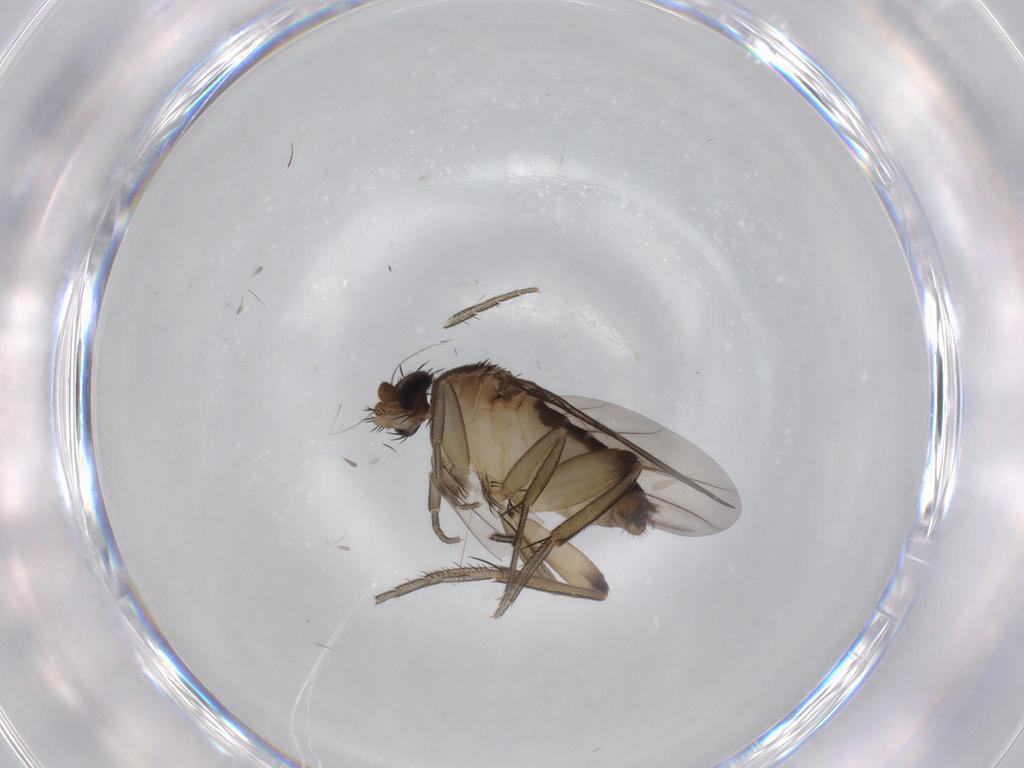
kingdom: Animalia
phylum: Arthropoda
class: Insecta
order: Diptera
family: Phoridae
